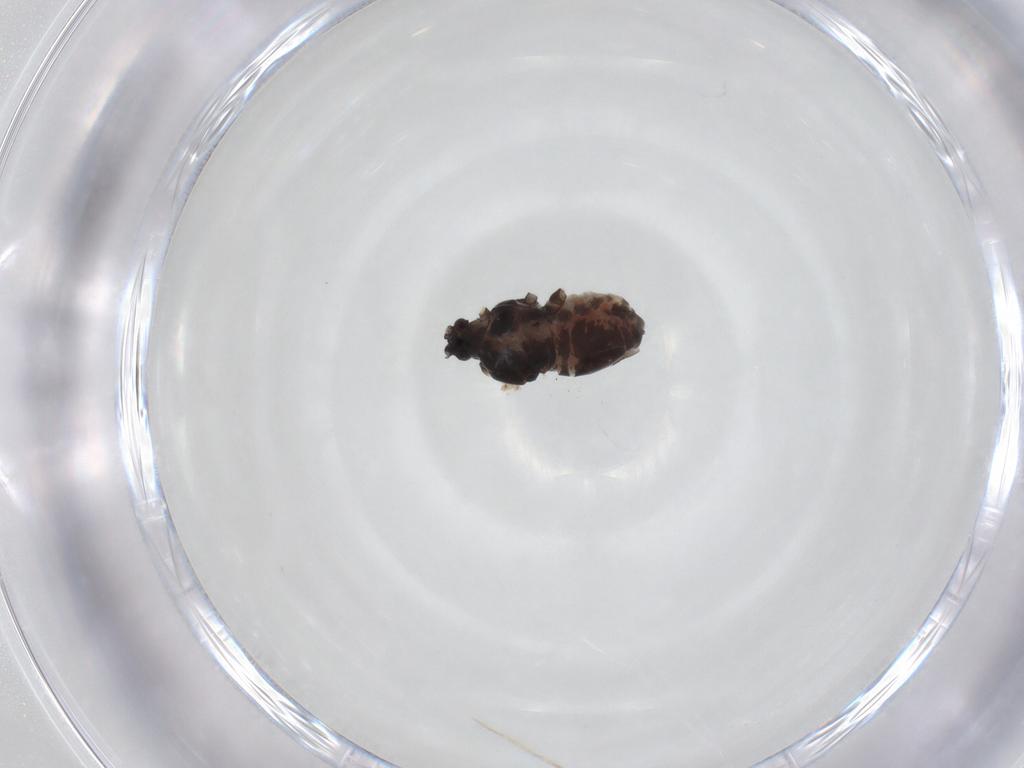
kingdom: Animalia
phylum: Arthropoda
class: Insecta
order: Hemiptera
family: Aphididae
